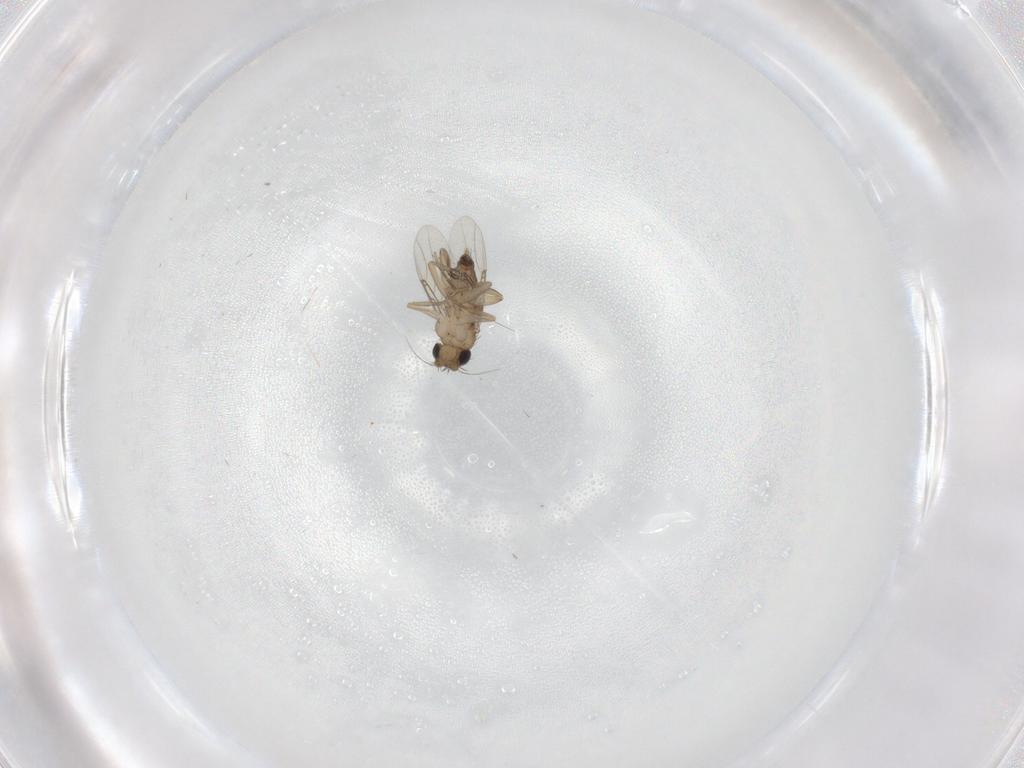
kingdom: Animalia
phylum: Arthropoda
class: Insecta
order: Diptera
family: Phoridae
